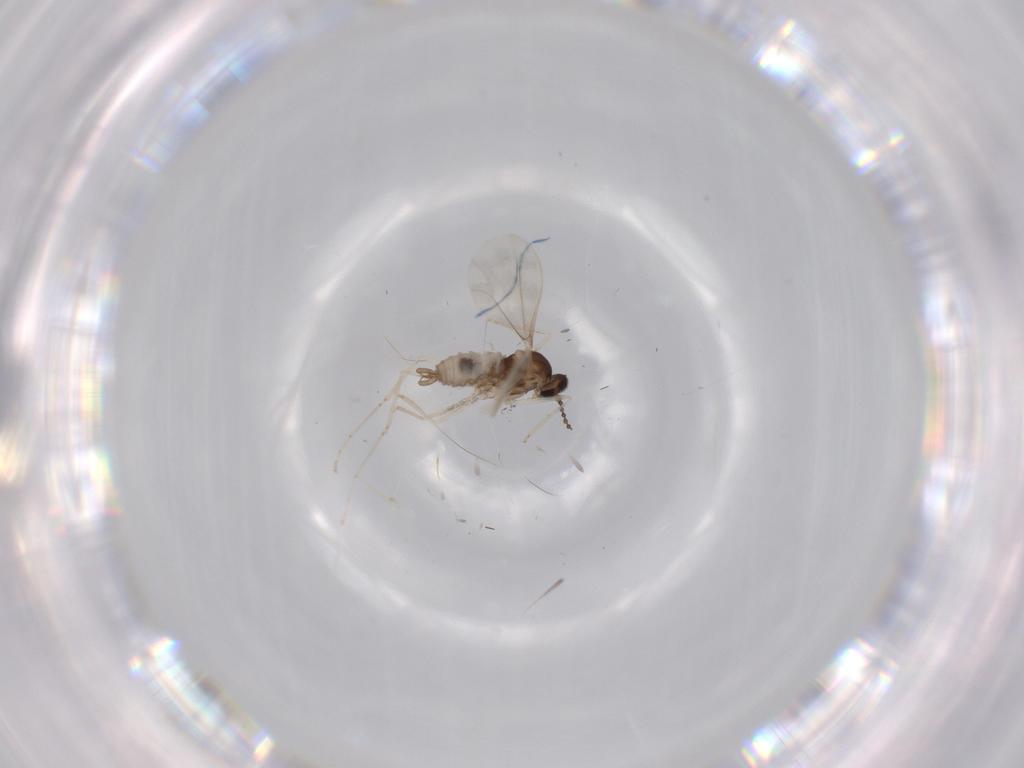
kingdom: Animalia
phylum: Arthropoda
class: Insecta
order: Diptera
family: Cecidomyiidae
